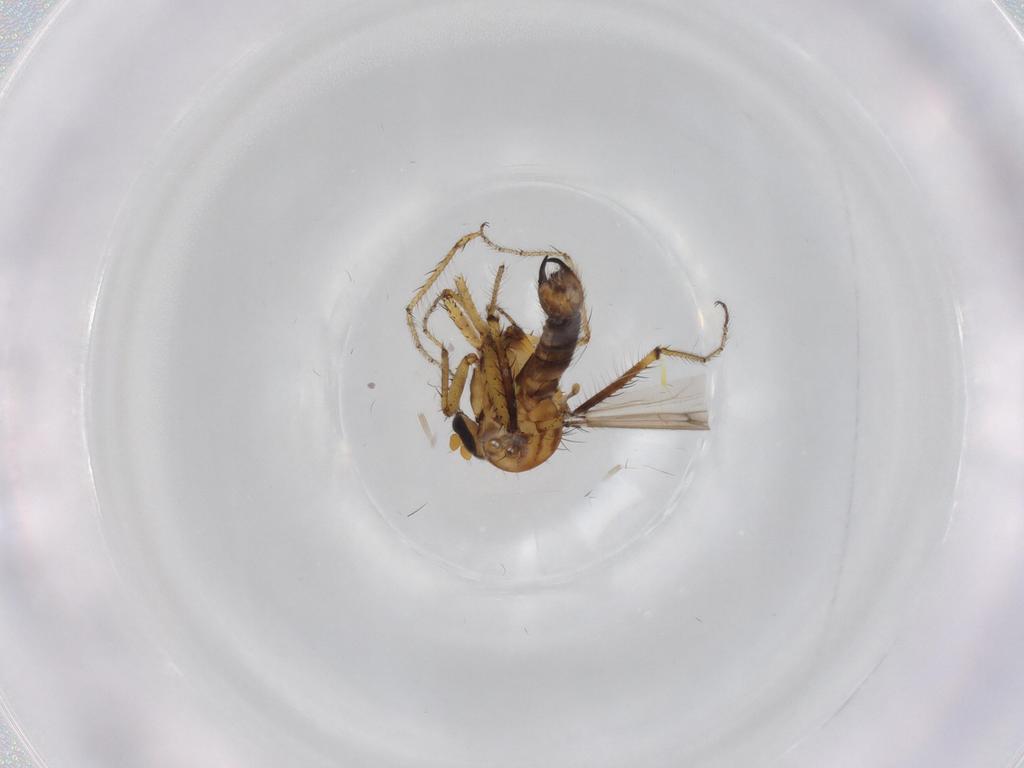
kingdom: Animalia
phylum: Arthropoda
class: Insecta
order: Diptera
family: Ceratopogonidae
